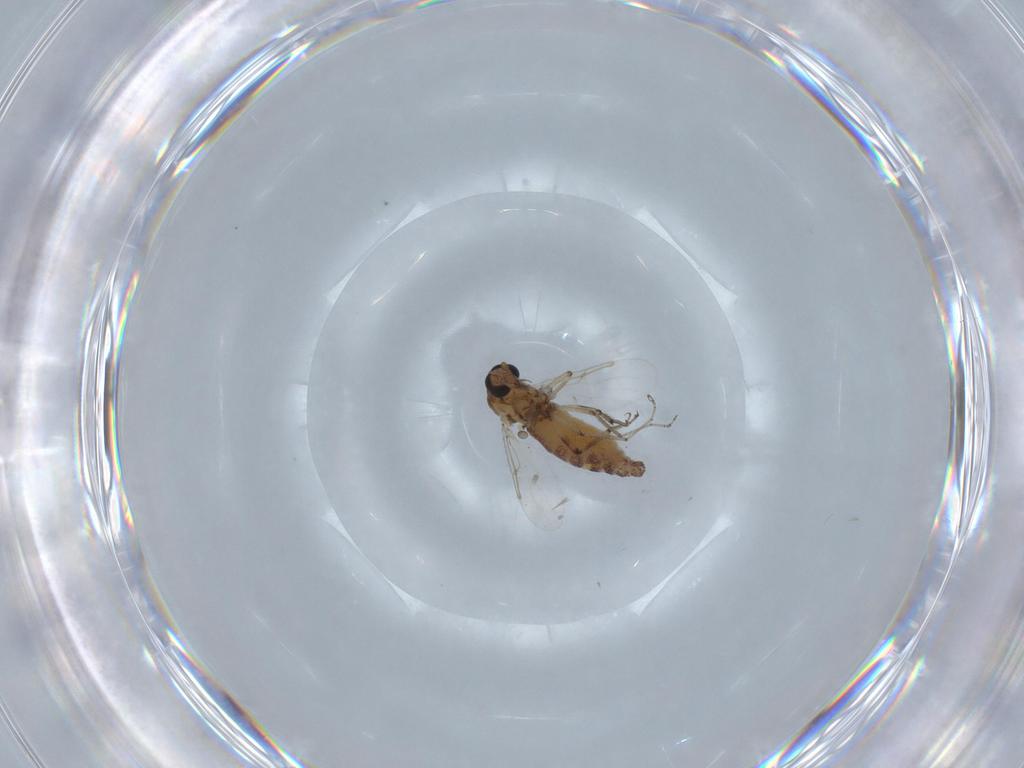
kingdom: Animalia
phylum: Arthropoda
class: Insecta
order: Diptera
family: Ceratopogonidae
